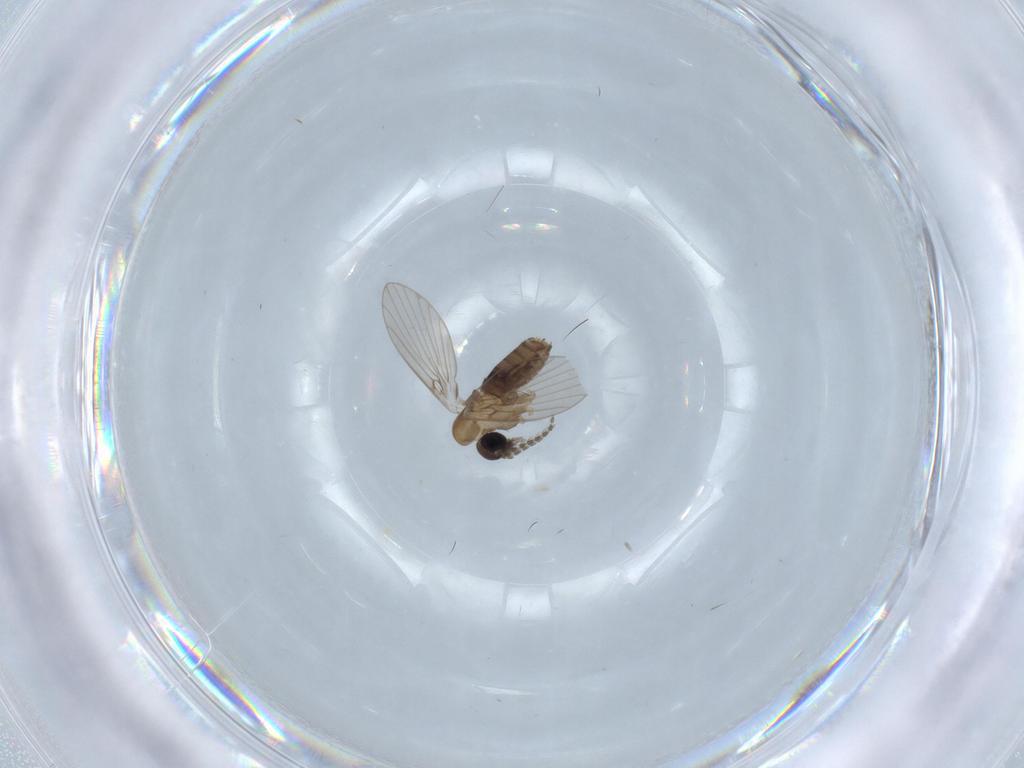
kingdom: Animalia
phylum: Arthropoda
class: Insecta
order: Diptera
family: Psychodidae
